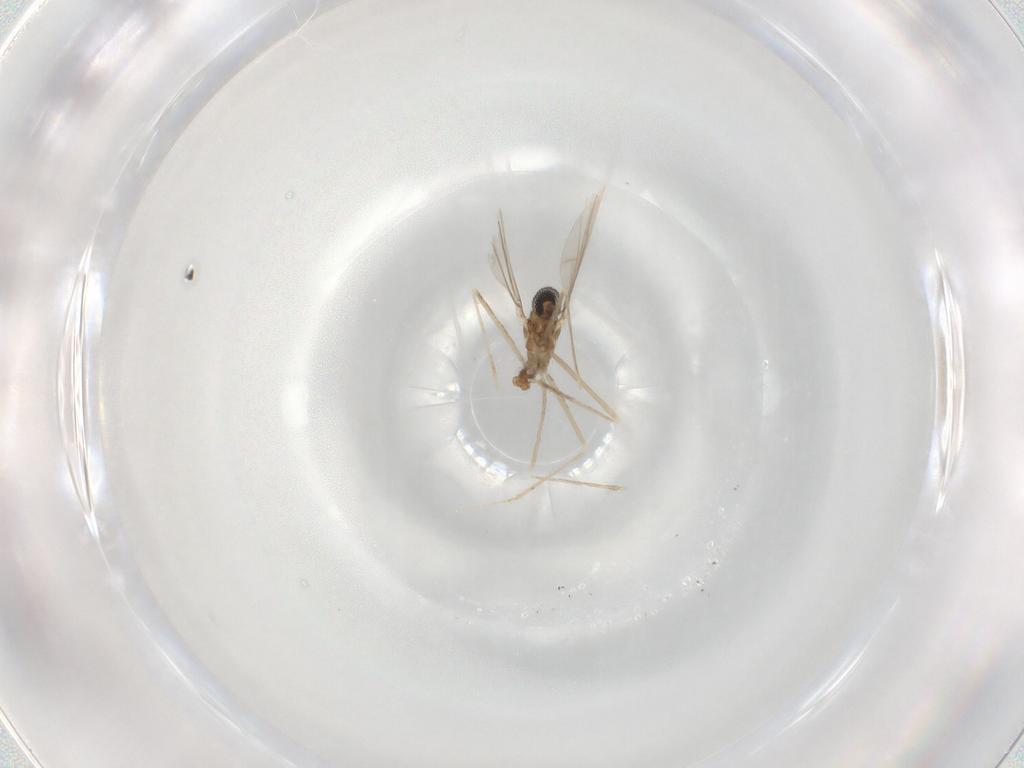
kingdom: Animalia
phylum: Arthropoda
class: Insecta
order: Diptera
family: Cecidomyiidae
